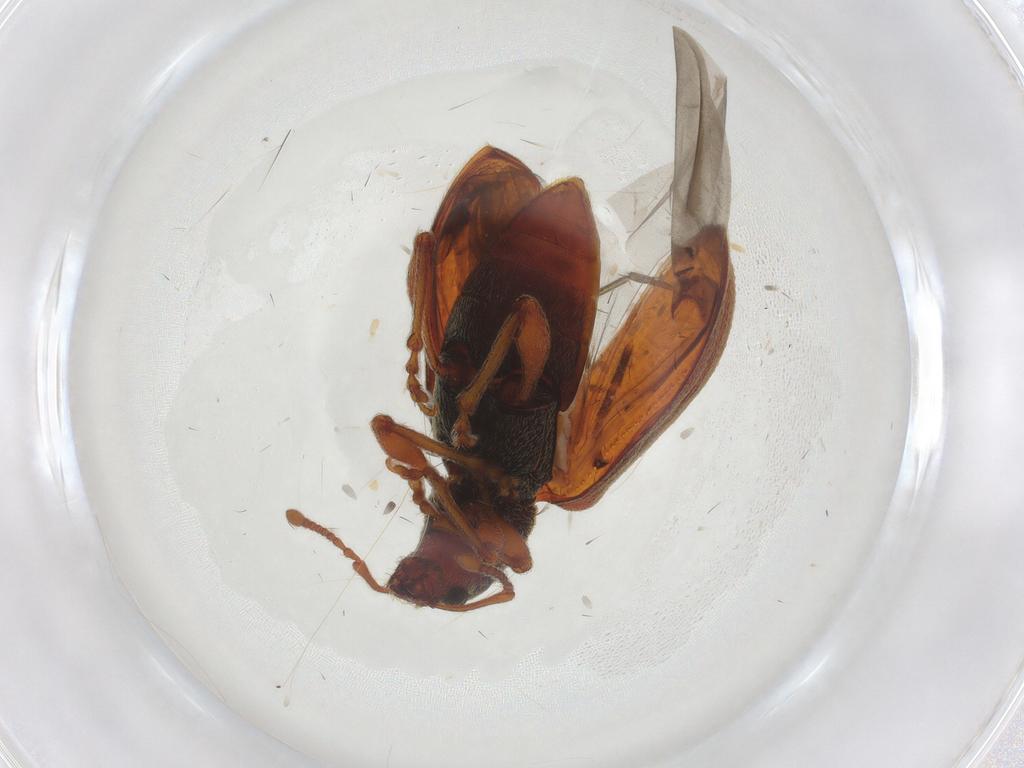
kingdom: Animalia
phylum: Arthropoda
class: Insecta
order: Coleoptera
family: Curculionidae
